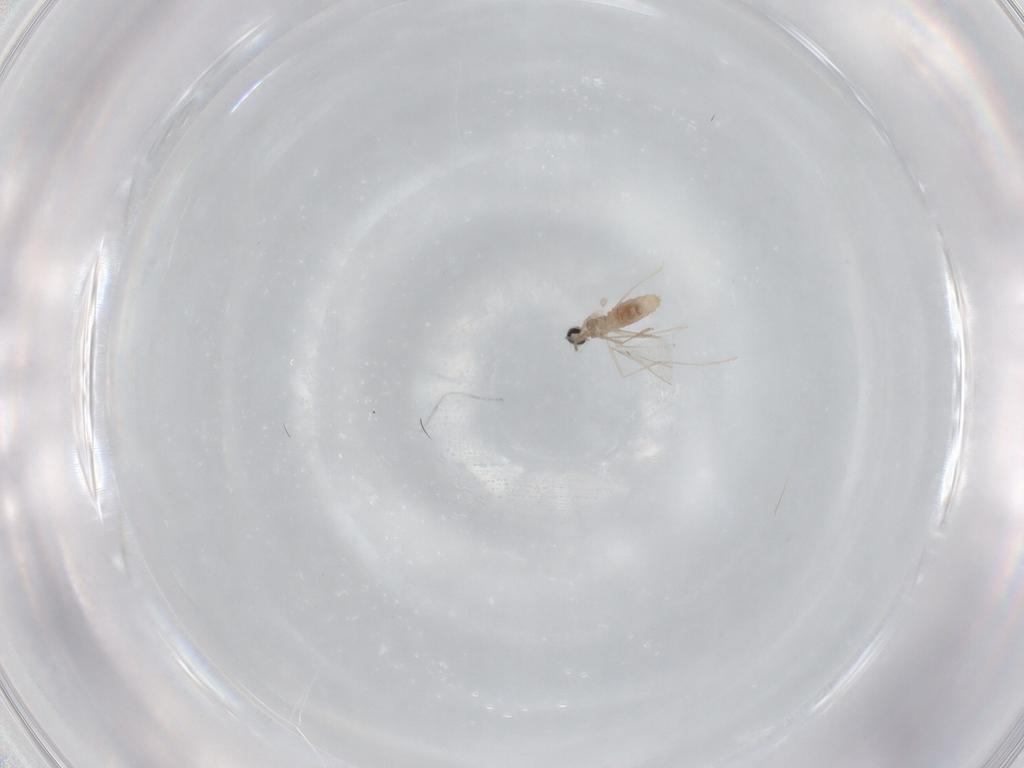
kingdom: Animalia
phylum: Arthropoda
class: Insecta
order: Diptera
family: Cecidomyiidae
